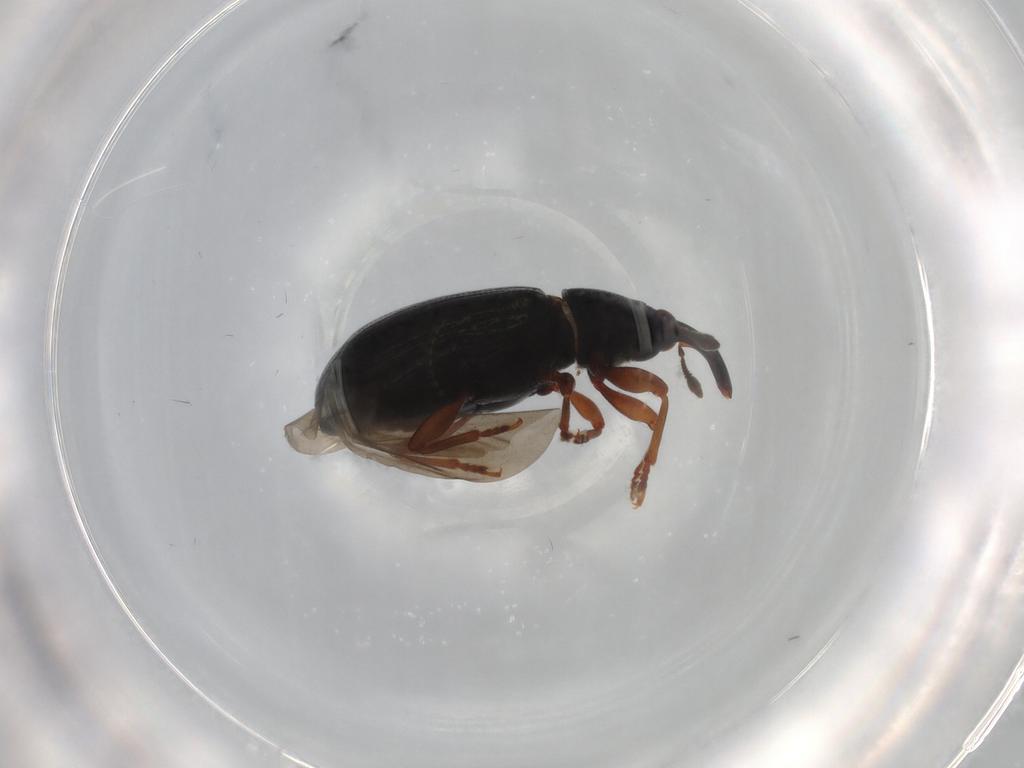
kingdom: Animalia
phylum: Arthropoda
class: Insecta
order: Coleoptera
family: Curculionidae
